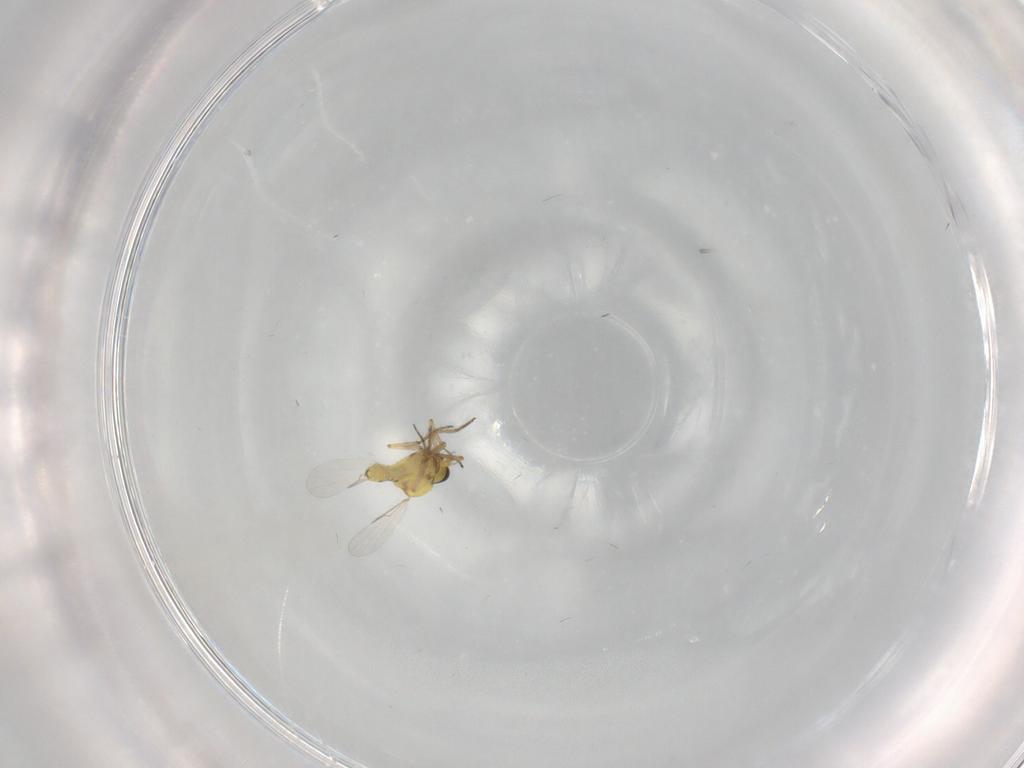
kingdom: Animalia
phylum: Arthropoda
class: Insecta
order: Diptera
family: Ceratopogonidae
